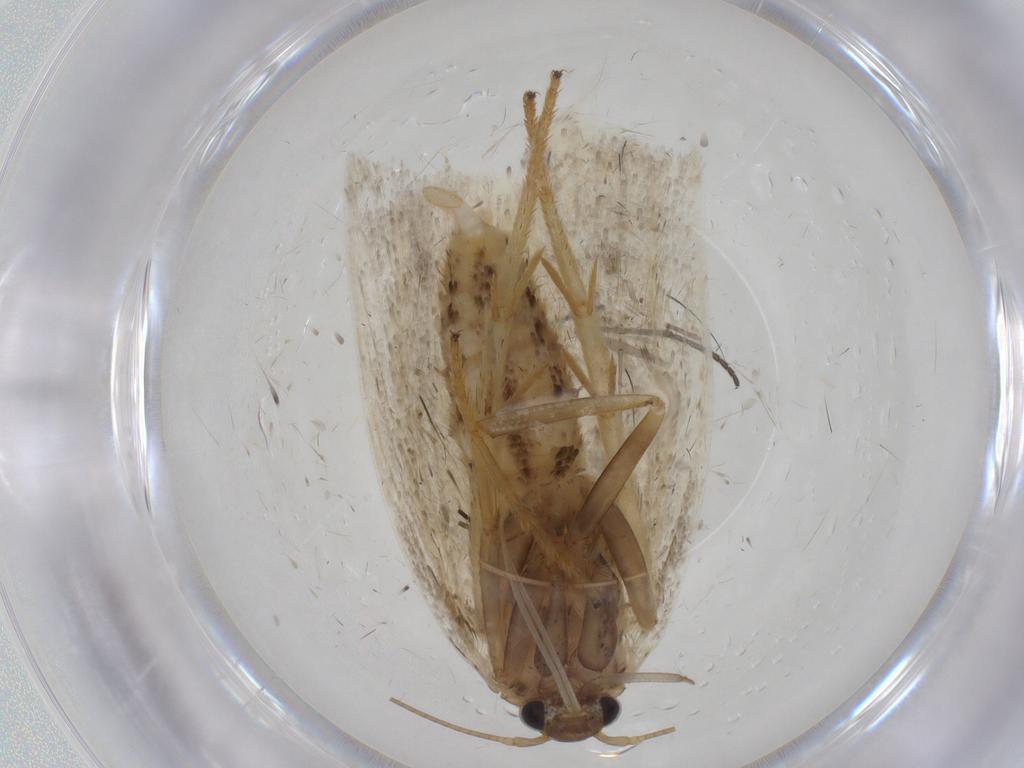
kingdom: Animalia
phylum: Arthropoda
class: Insecta
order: Lepidoptera
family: Depressariidae
